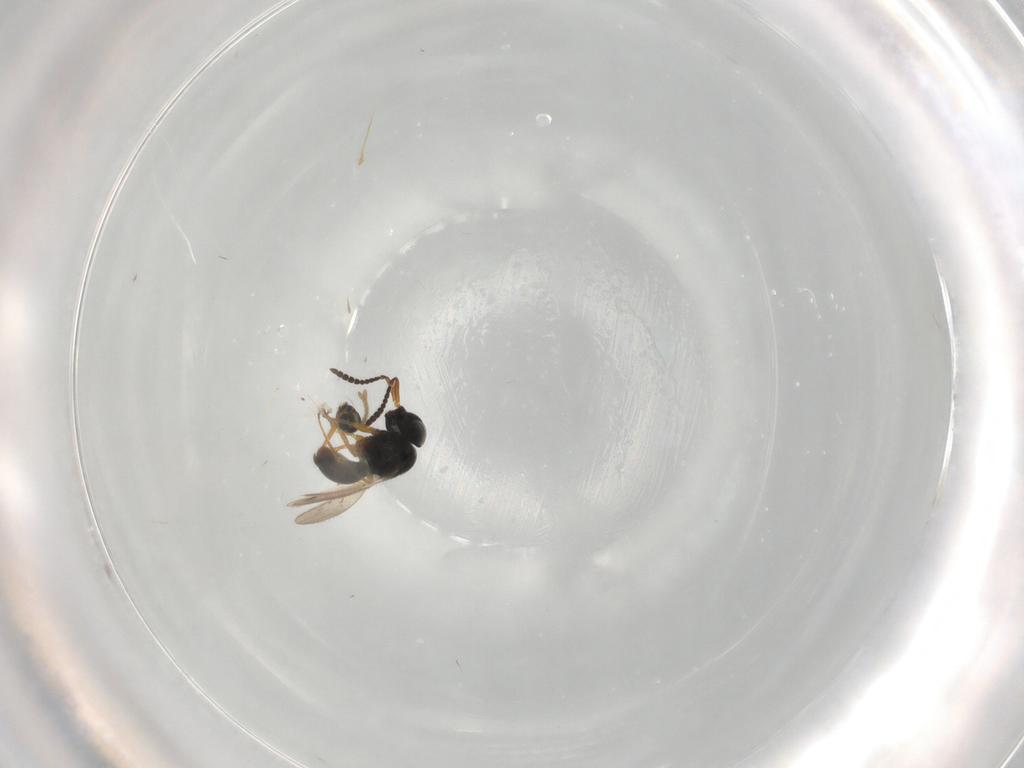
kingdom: Animalia
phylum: Arthropoda
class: Insecta
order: Hymenoptera
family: Scelionidae
